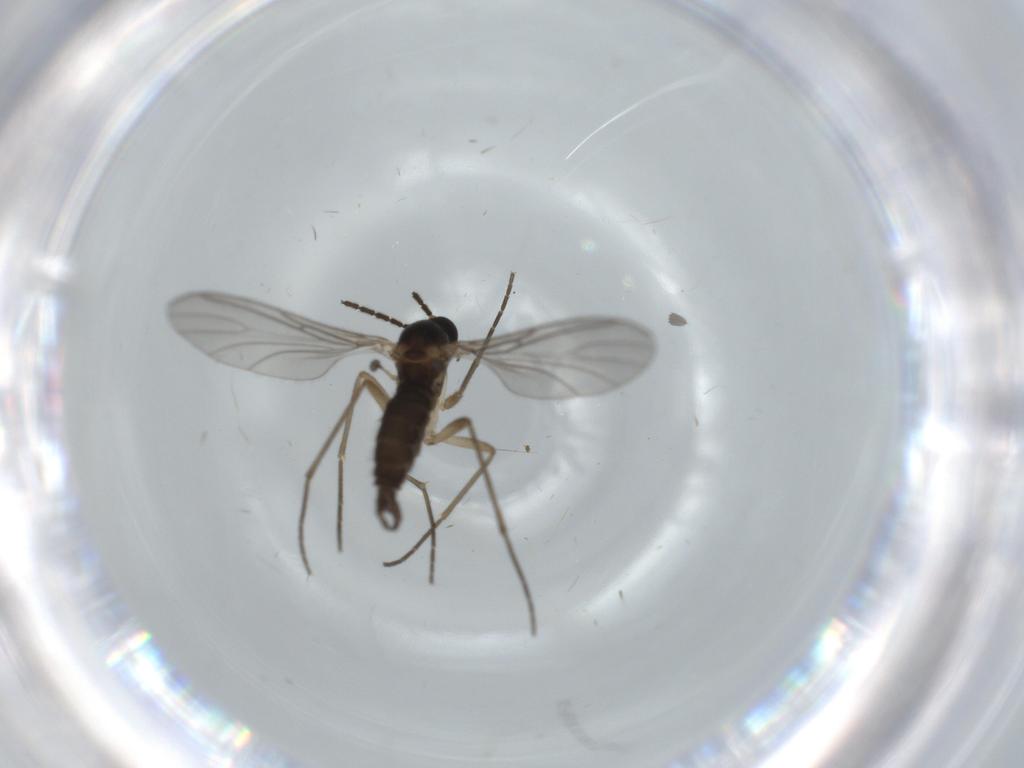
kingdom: Animalia
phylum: Arthropoda
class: Insecta
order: Diptera
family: Sciaridae
